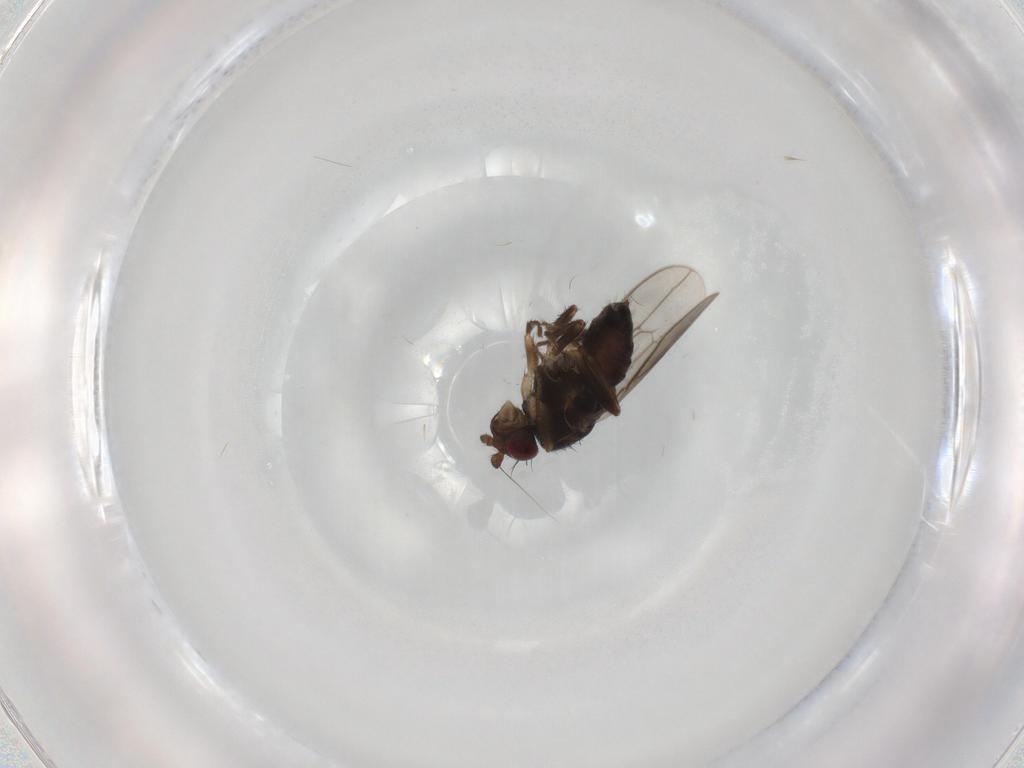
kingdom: Animalia
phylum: Arthropoda
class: Insecta
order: Diptera
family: Sphaeroceridae
